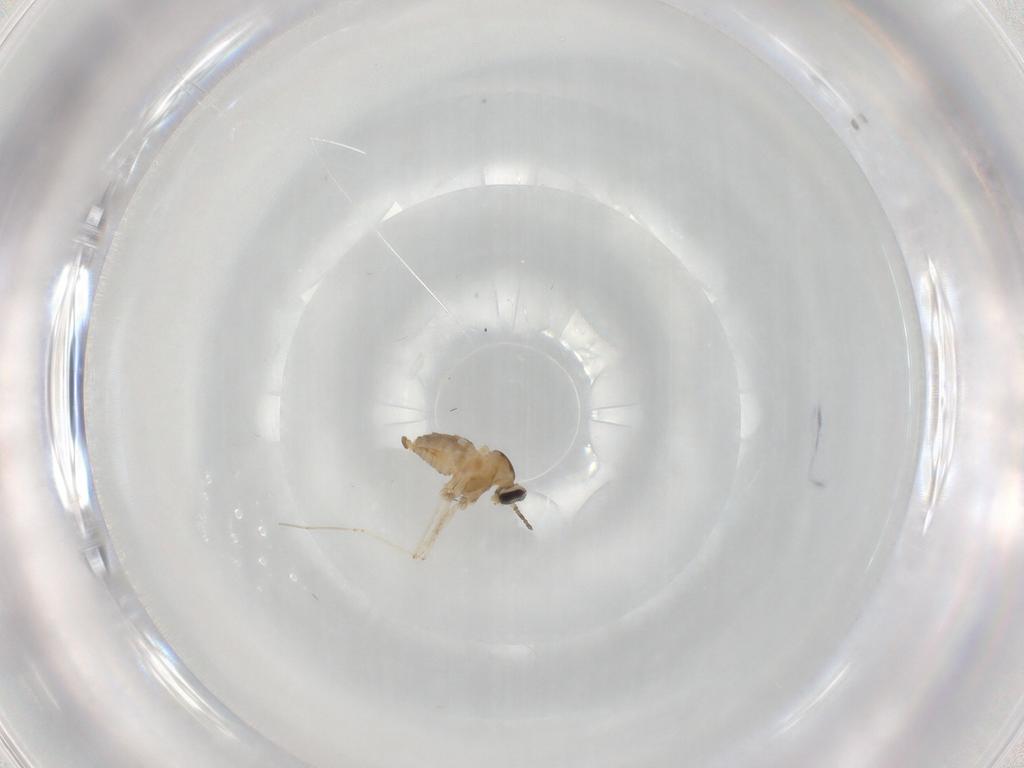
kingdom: Animalia
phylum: Arthropoda
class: Insecta
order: Diptera
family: Cecidomyiidae
